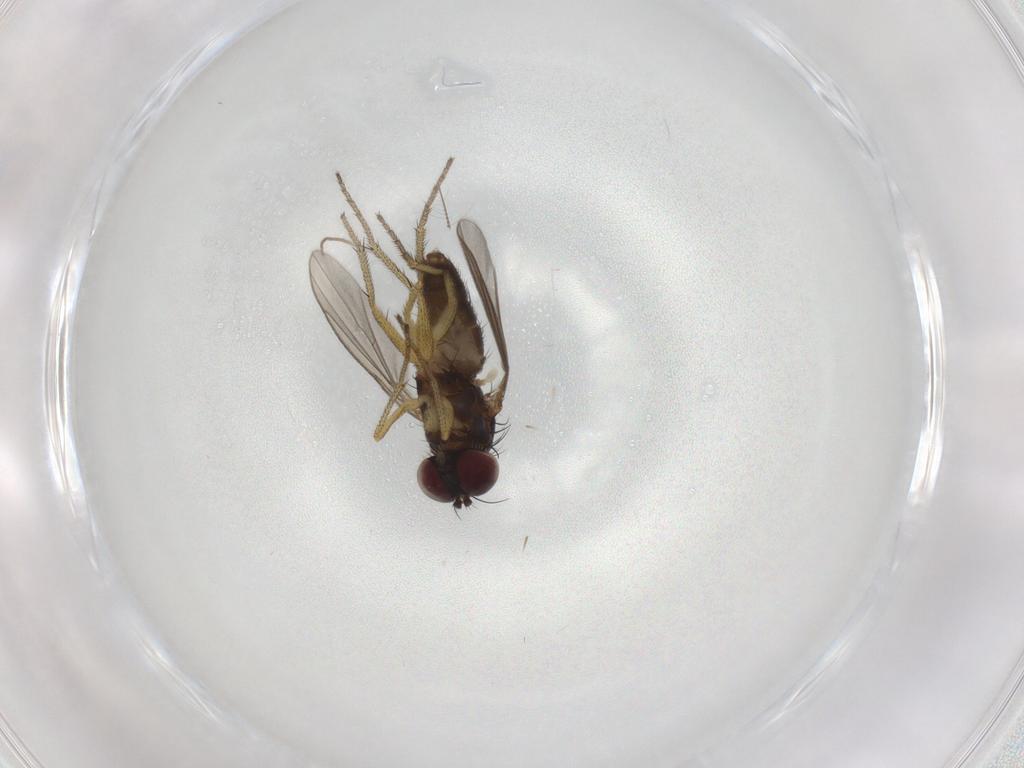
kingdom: Animalia
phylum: Arthropoda
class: Insecta
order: Diptera
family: Dolichopodidae
